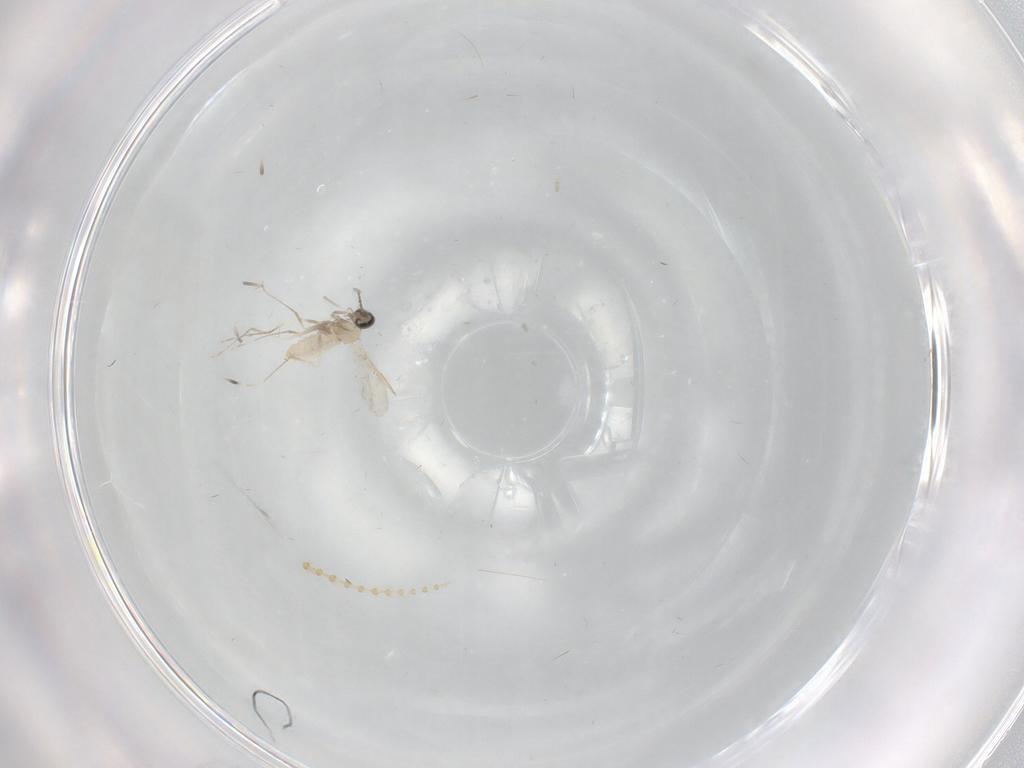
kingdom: Animalia
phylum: Arthropoda
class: Insecta
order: Diptera
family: Psychodidae
